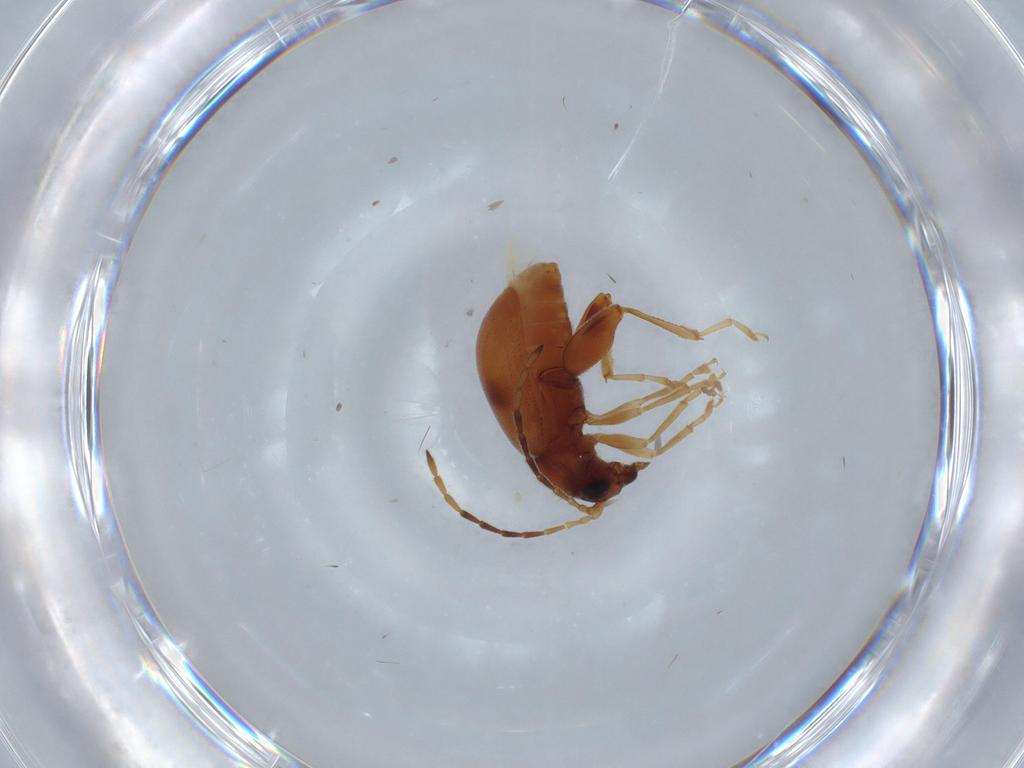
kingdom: Animalia
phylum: Arthropoda
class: Insecta
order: Coleoptera
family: Chrysomelidae
